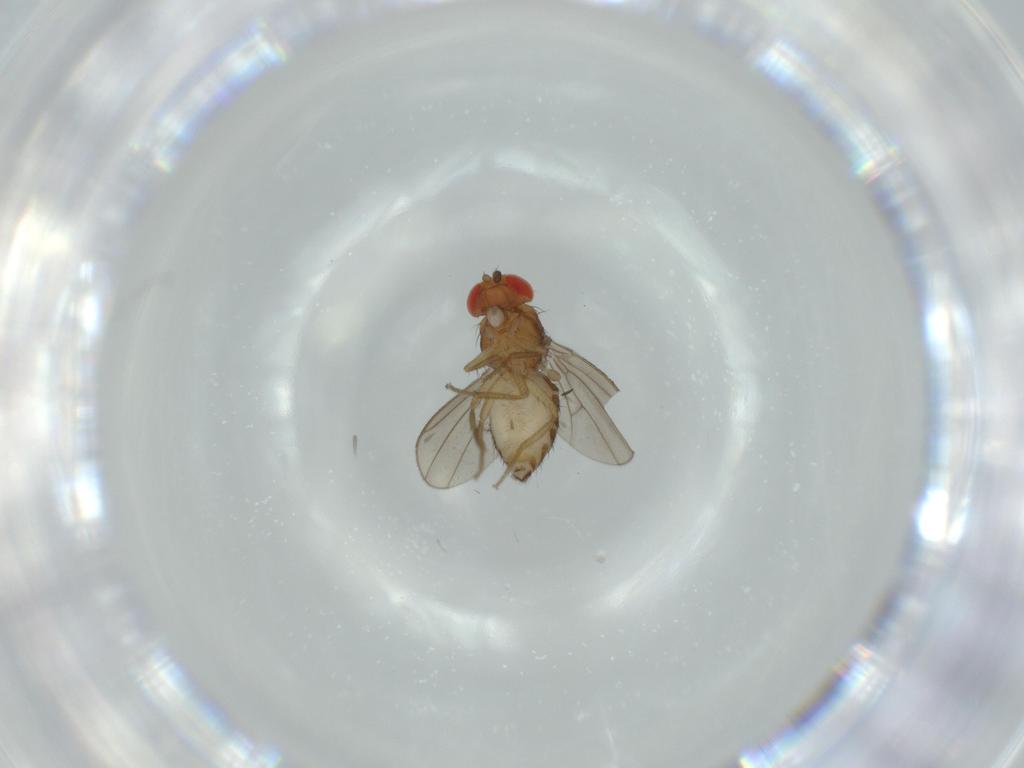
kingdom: Animalia
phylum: Arthropoda
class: Insecta
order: Diptera
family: Drosophilidae
